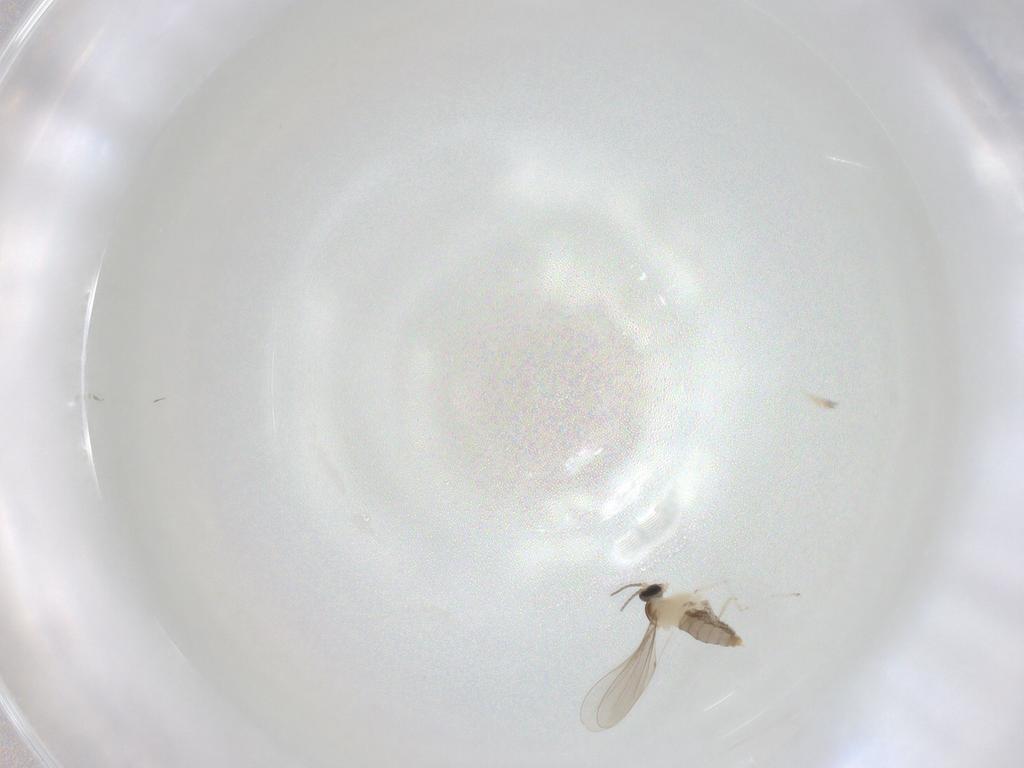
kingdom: Animalia
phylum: Arthropoda
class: Insecta
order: Diptera
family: Cecidomyiidae
